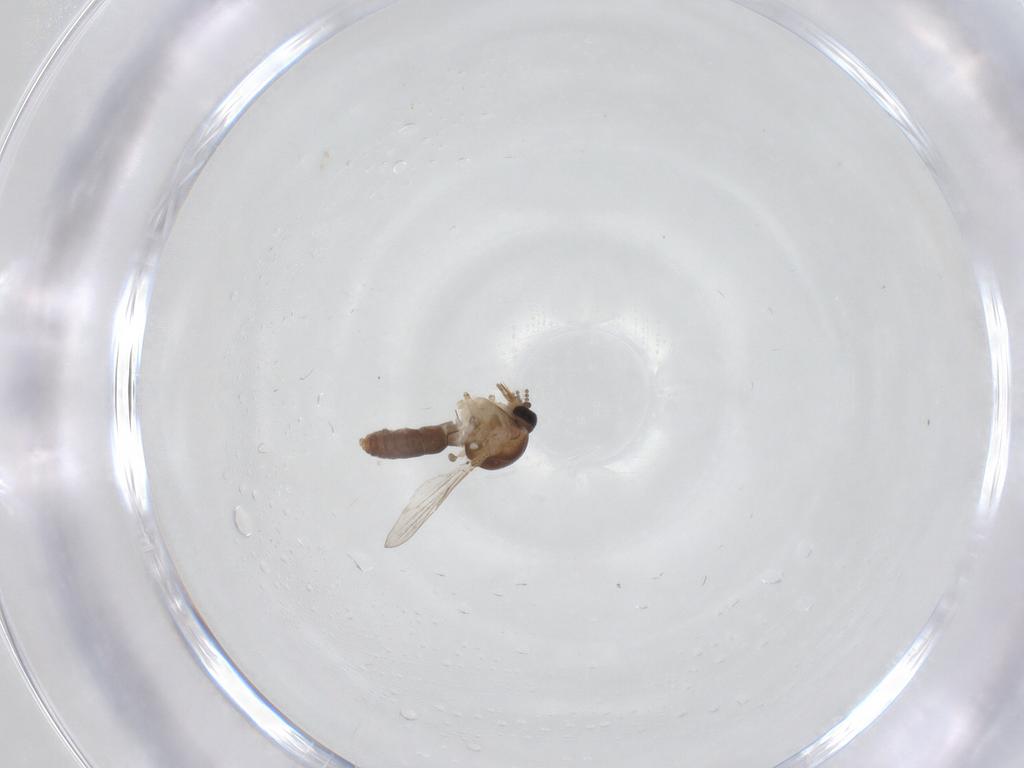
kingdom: Animalia
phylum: Arthropoda
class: Insecta
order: Diptera
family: Ceratopogonidae
